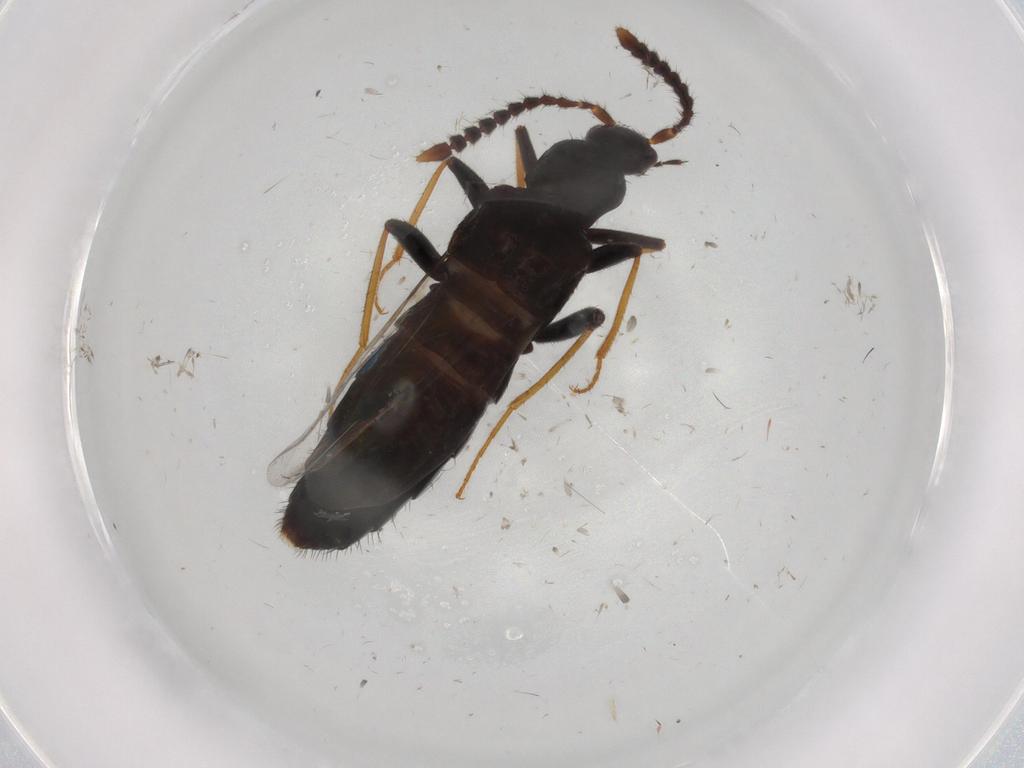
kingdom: Animalia
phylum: Arthropoda
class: Insecta
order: Coleoptera
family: Staphylinidae
